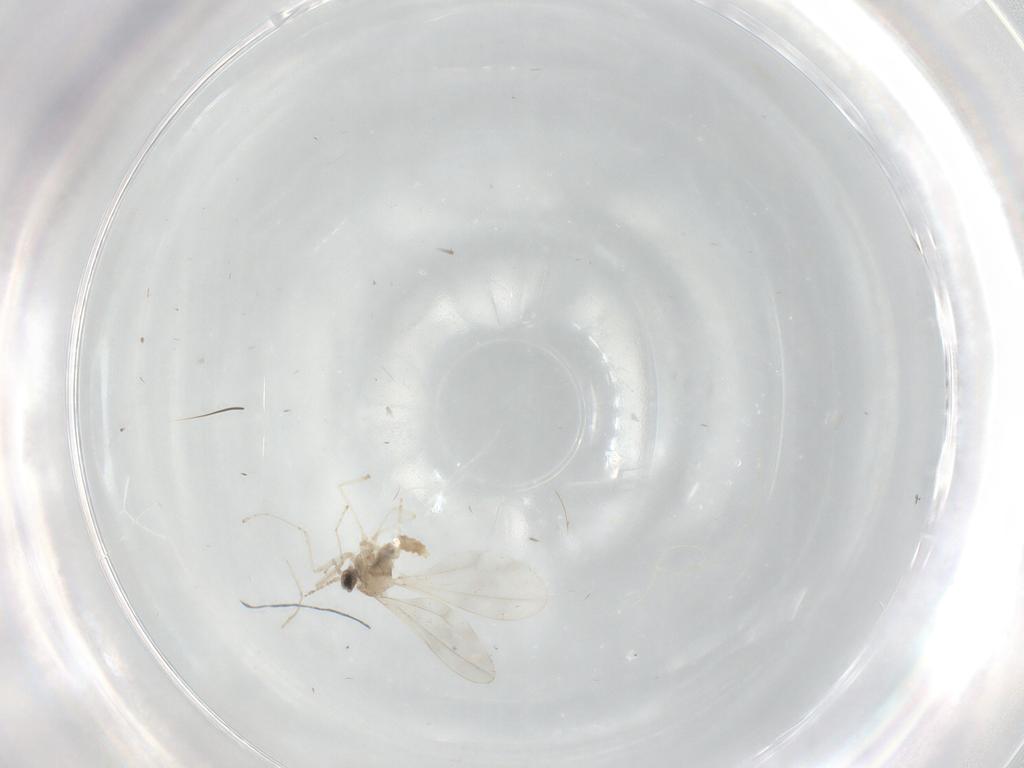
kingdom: Animalia
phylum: Arthropoda
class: Insecta
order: Diptera
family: Cecidomyiidae
